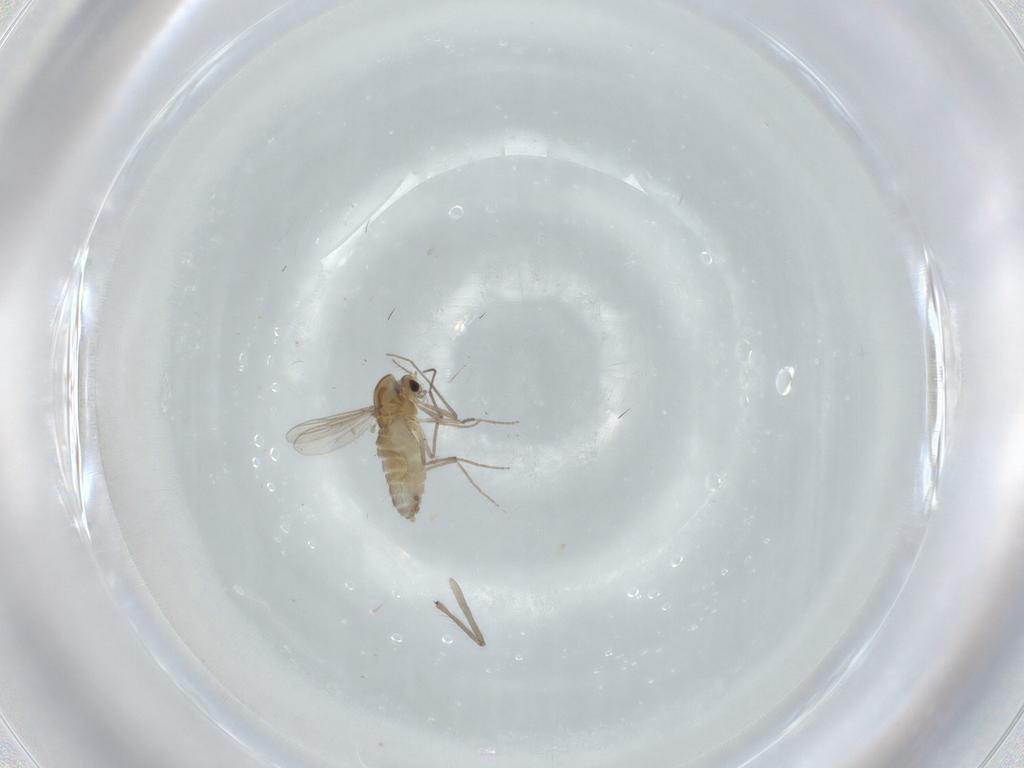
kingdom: Animalia
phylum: Arthropoda
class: Insecta
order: Diptera
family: Chironomidae
